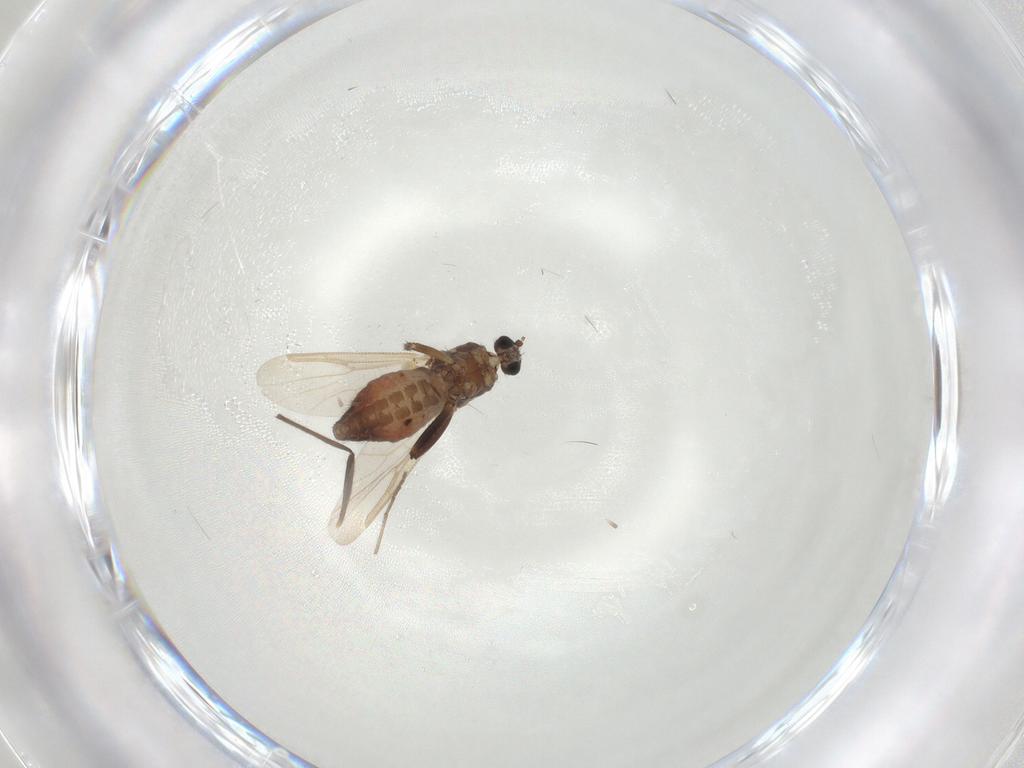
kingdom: Animalia
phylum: Arthropoda
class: Insecta
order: Diptera
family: Ceratopogonidae
